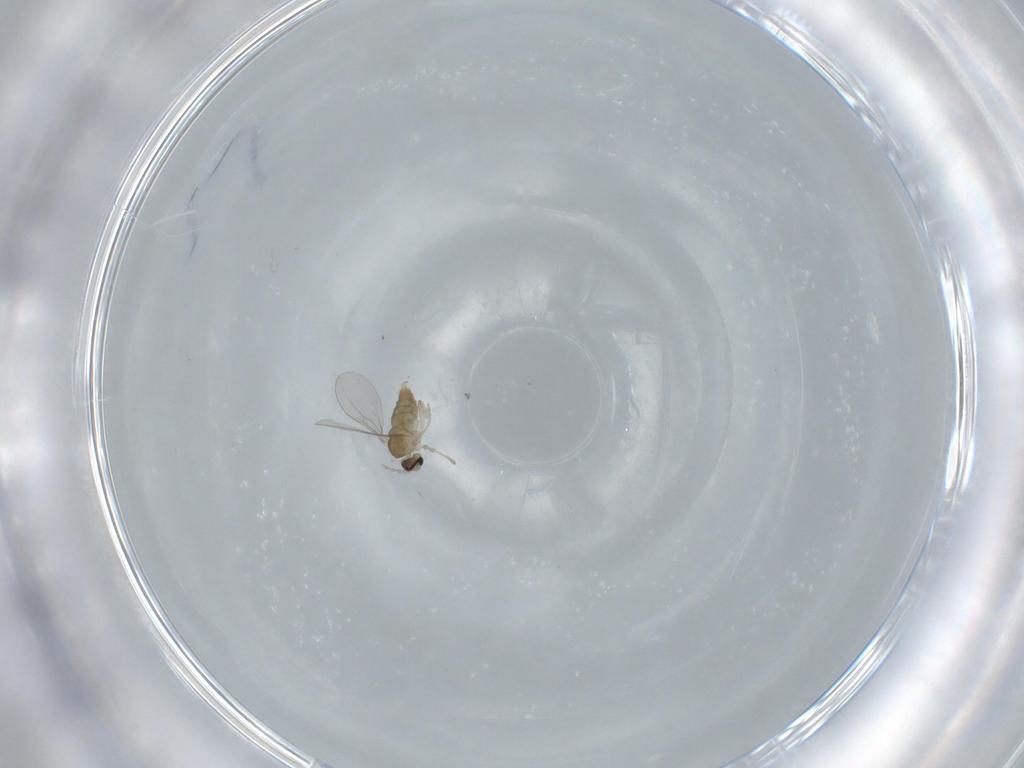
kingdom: Animalia
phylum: Arthropoda
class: Insecta
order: Diptera
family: Cecidomyiidae
